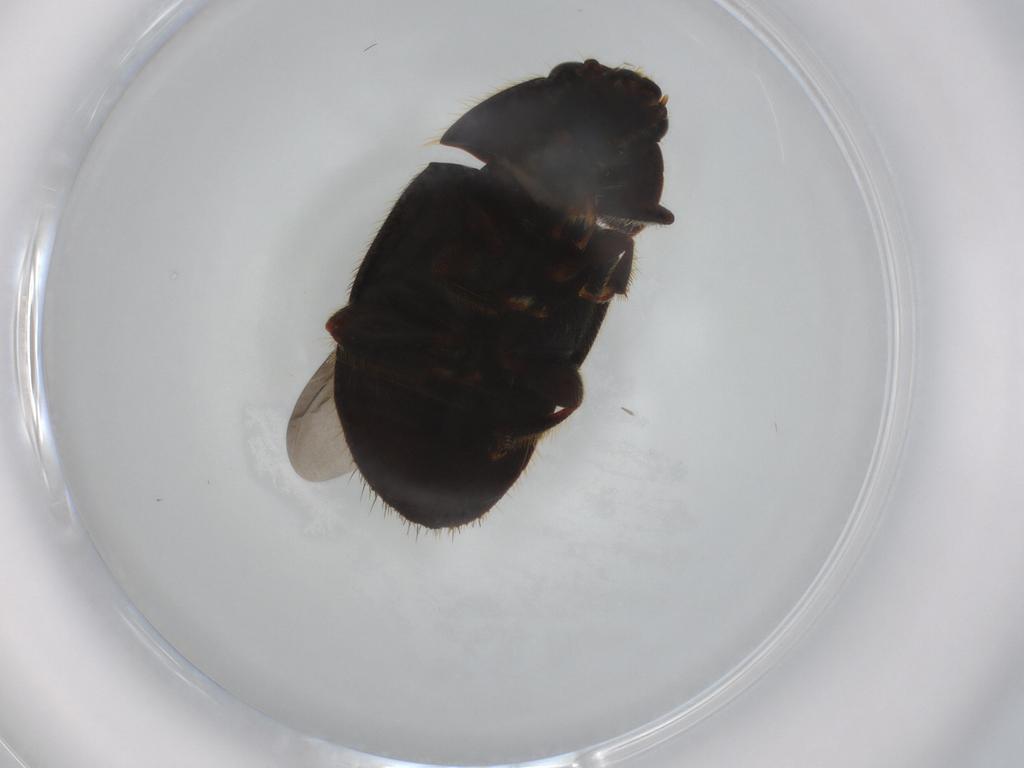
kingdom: Animalia
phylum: Arthropoda
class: Insecta
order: Coleoptera
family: Nitidulidae
